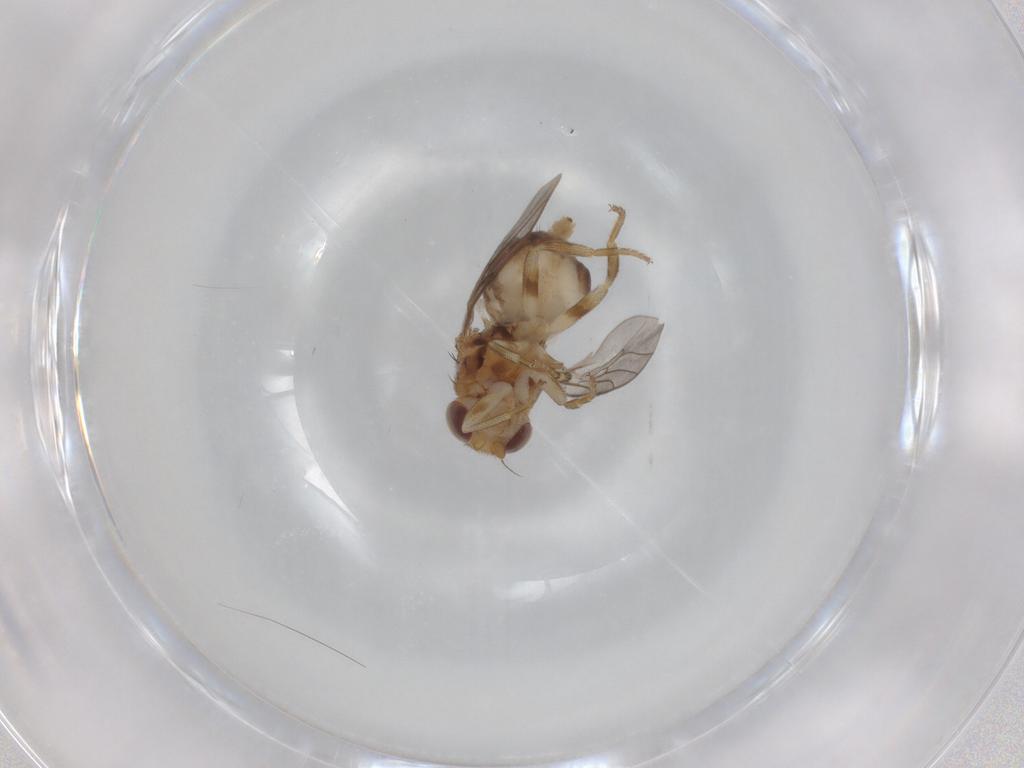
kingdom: Animalia
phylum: Arthropoda
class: Insecta
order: Diptera
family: Chloropidae
